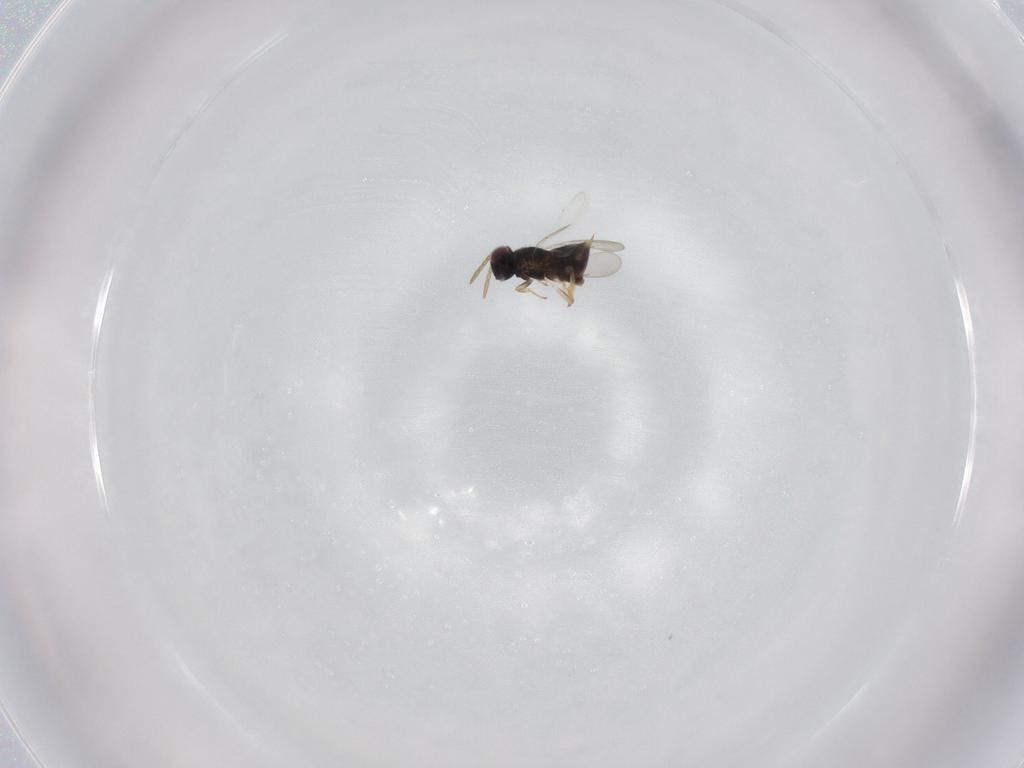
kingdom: Animalia
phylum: Arthropoda
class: Insecta
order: Hymenoptera
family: Aphelinidae
